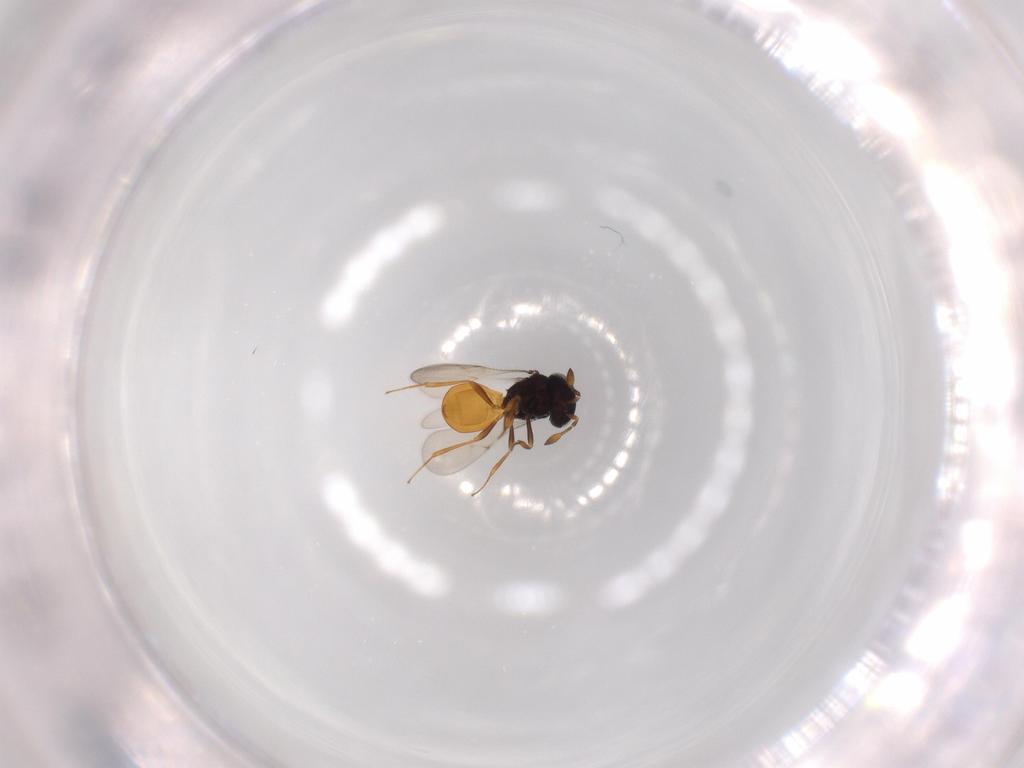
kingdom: Animalia
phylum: Arthropoda
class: Insecta
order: Hymenoptera
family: Scelionidae
